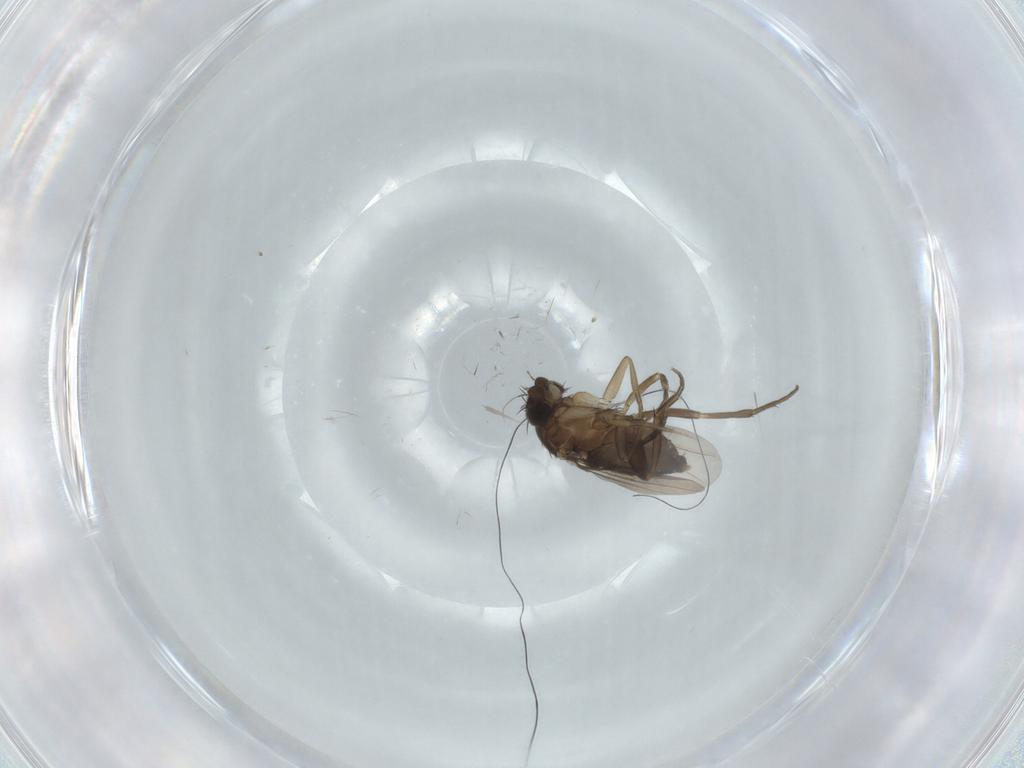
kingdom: Animalia
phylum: Arthropoda
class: Insecta
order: Diptera
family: Phoridae
